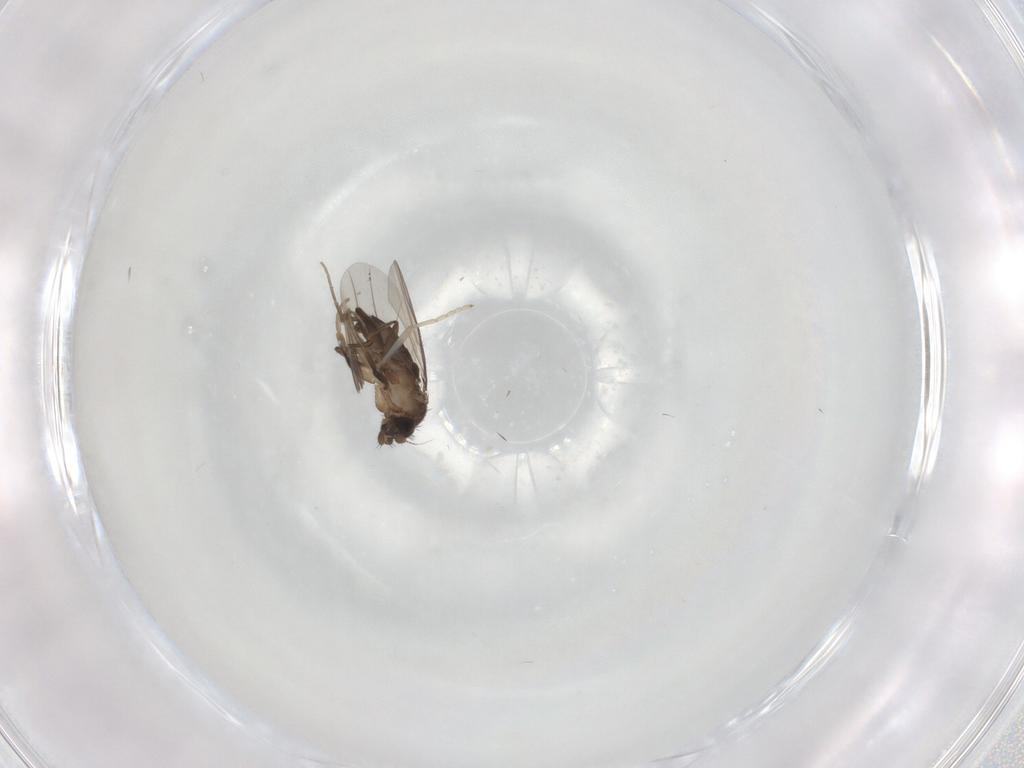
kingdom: Animalia
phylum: Arthropoda
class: Insecta
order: Diptera
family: Cecidomyiidae
